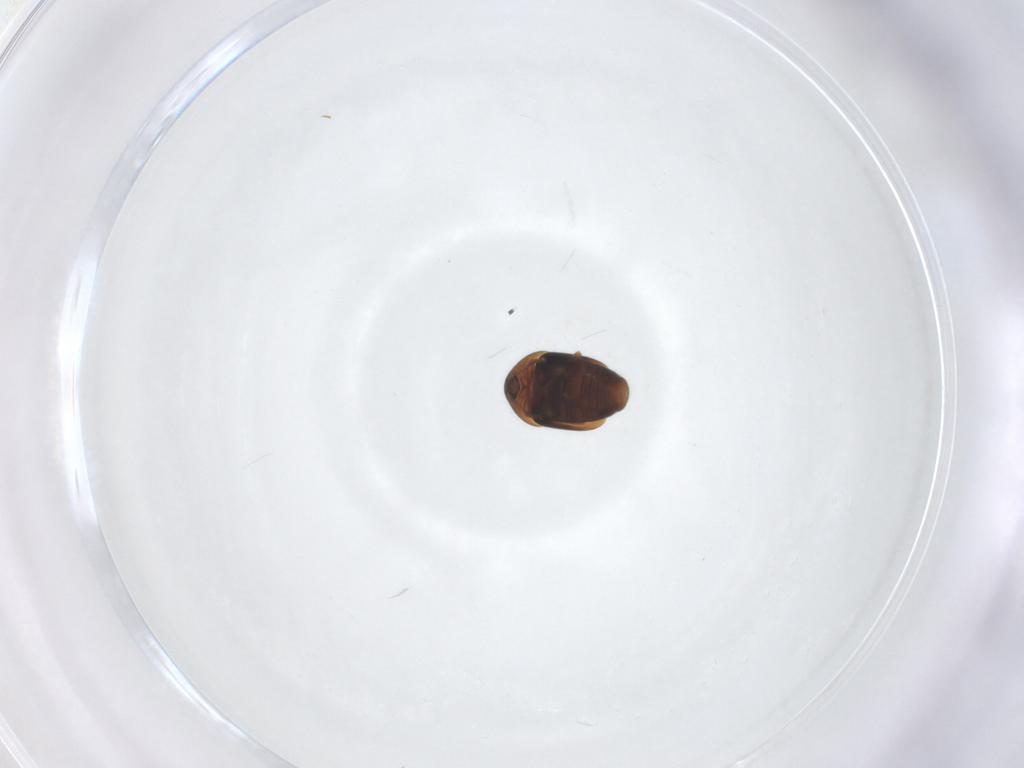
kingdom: Animalia
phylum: Arthropoda
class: Insecta
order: Coleoptera
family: Corylophidae
